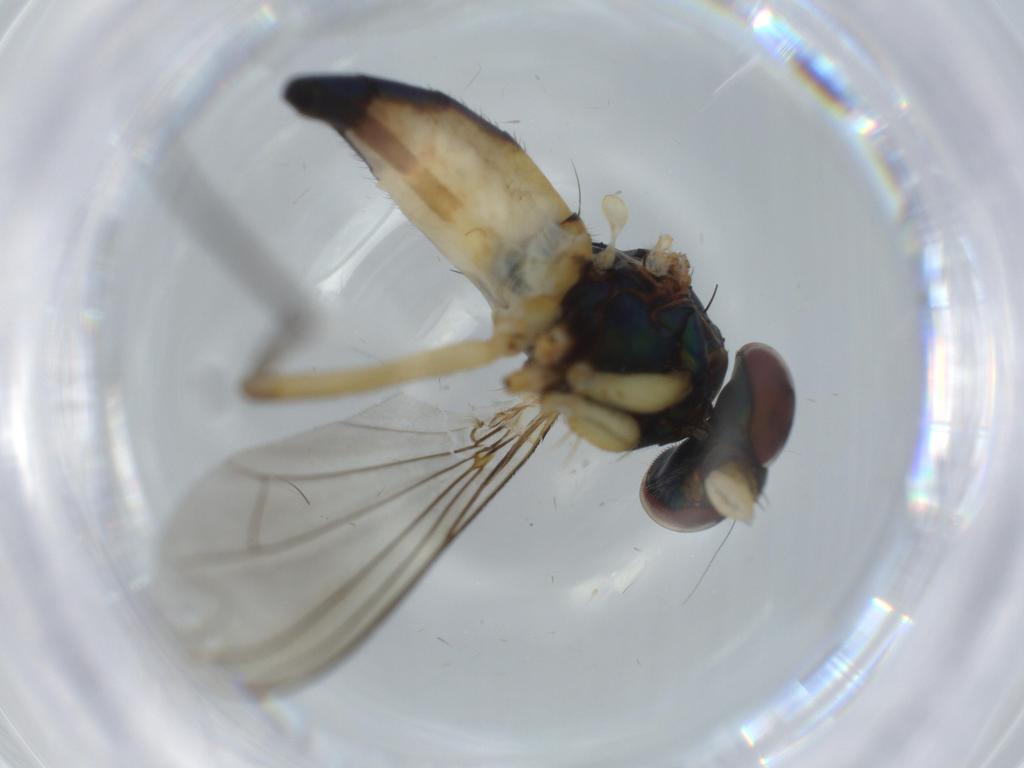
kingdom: Animalia
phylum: Arthropoda
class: Insecta
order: Diptera
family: Dolichopodidae
